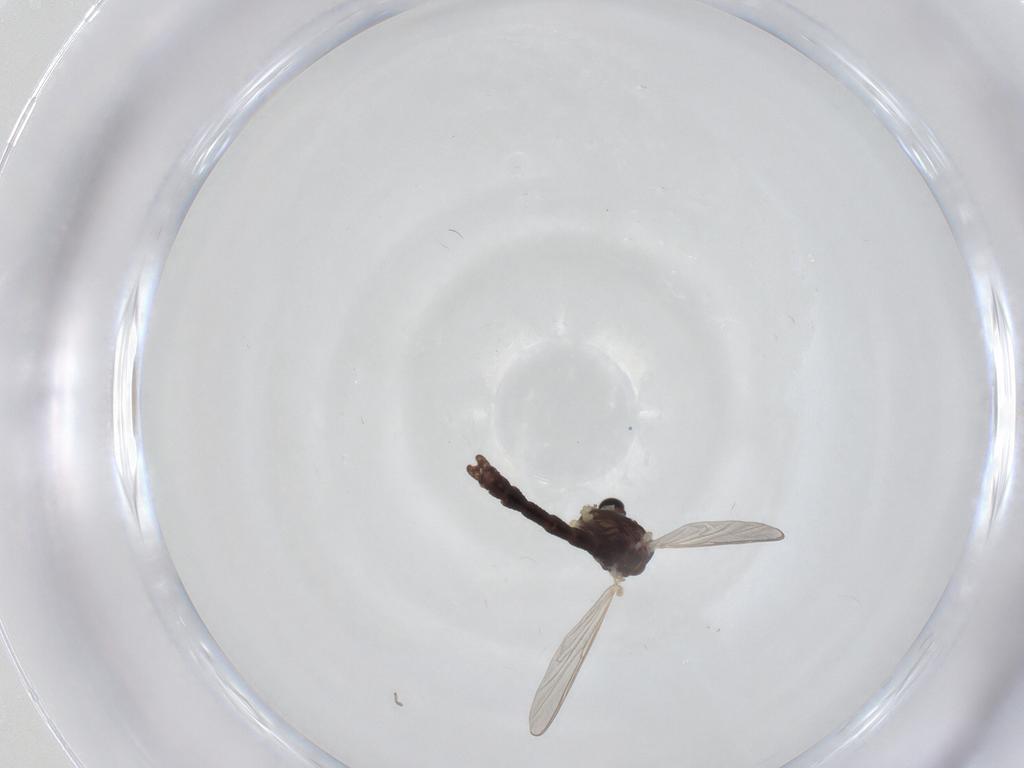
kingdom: Animalia
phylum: Arthropoda
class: Insecta
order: Diptera
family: Chironomidae
